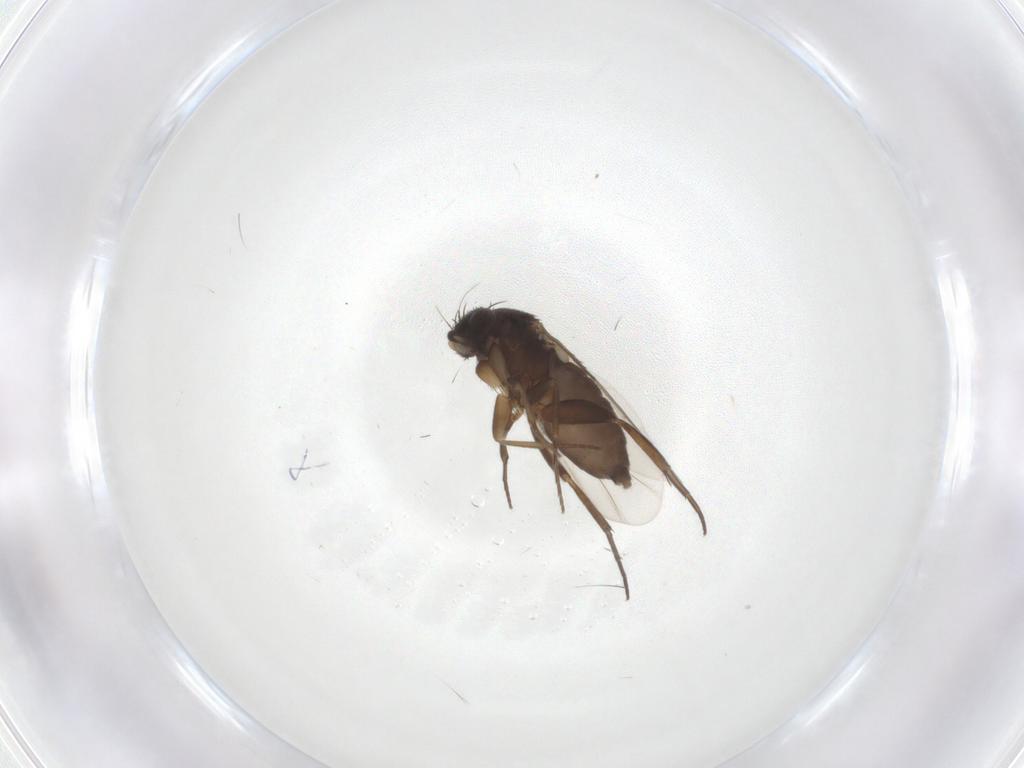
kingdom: Animalia
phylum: Arthropoda
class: Insecta
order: Diptera
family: Phoridae
